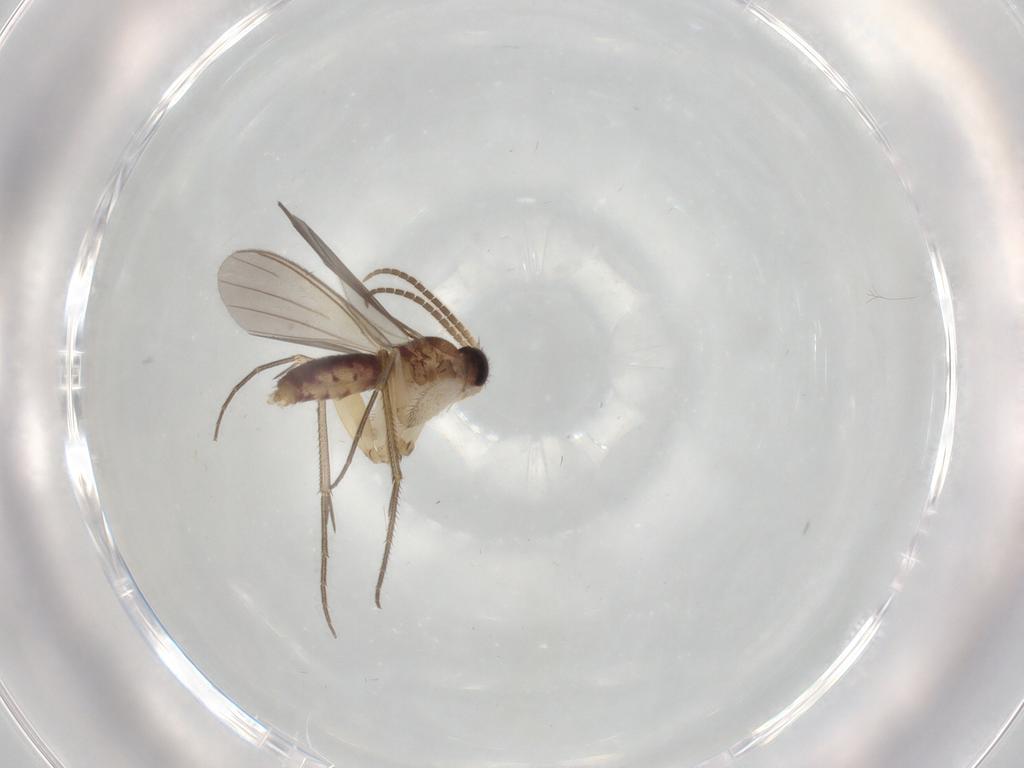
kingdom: Animalia
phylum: Arthropoda
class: Insecta
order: Diptera
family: Mycetophilidae
